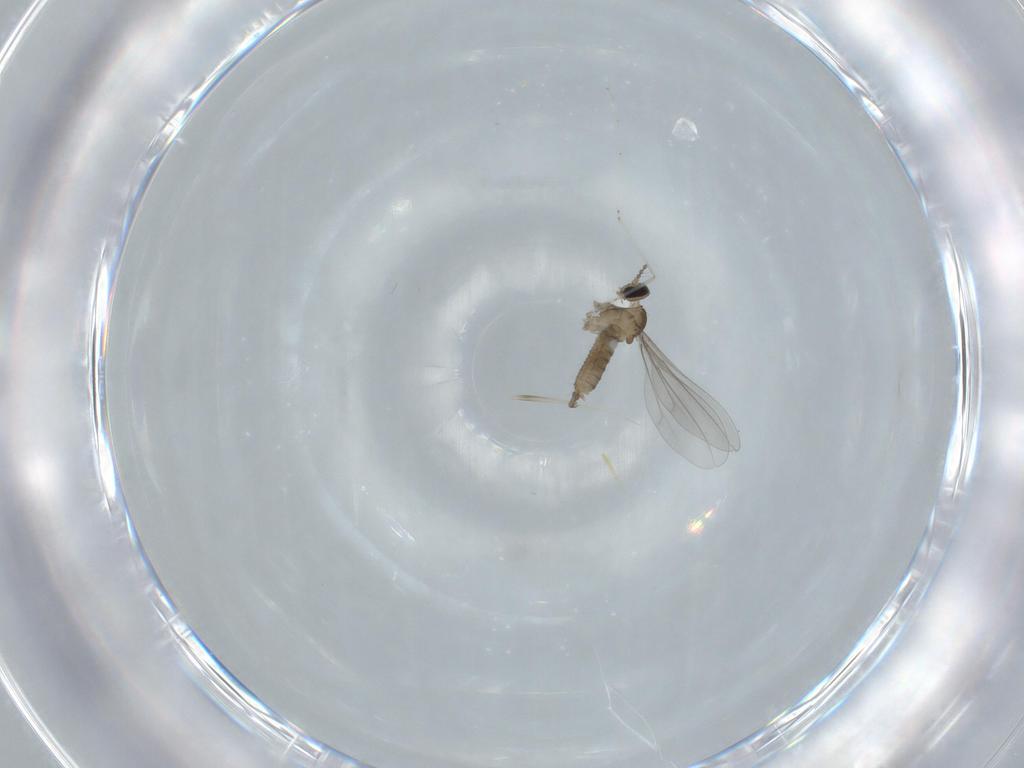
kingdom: Animalia
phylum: Arthropoda
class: Insecta
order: Diptera
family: Cecidomyiidae
